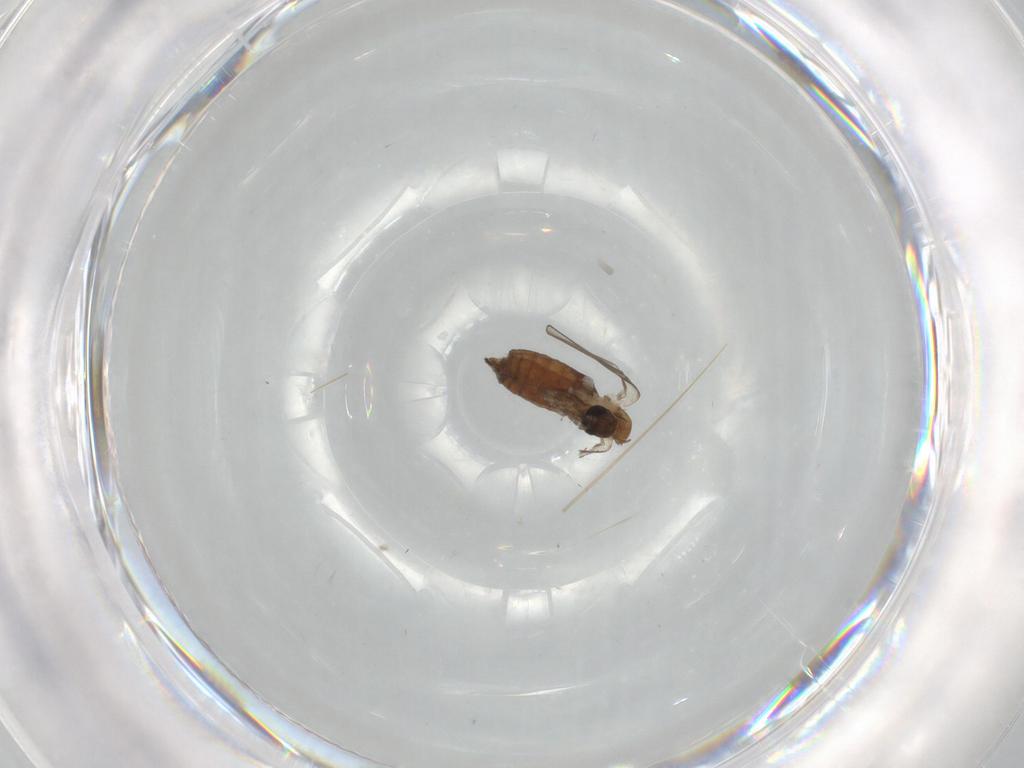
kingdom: Animalia
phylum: Arthropoda
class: Insecta
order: Diptera
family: Psychodidae
